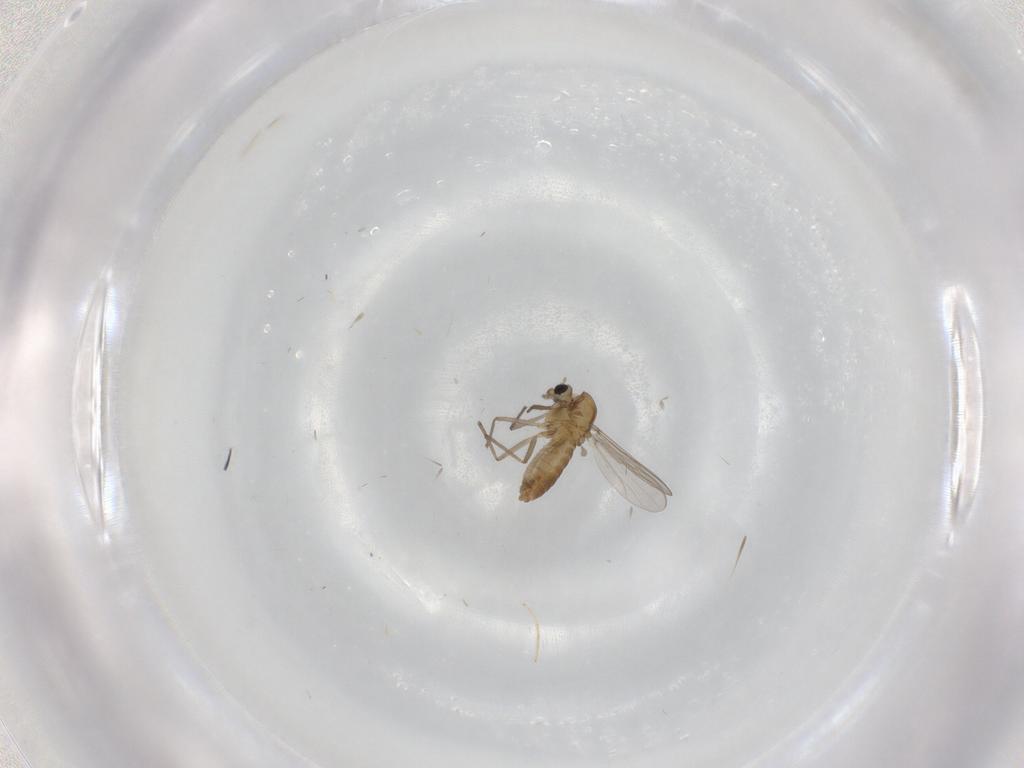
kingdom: Animalia
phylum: Arthropoda
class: Insecta
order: Diptera
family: Chironomidae
